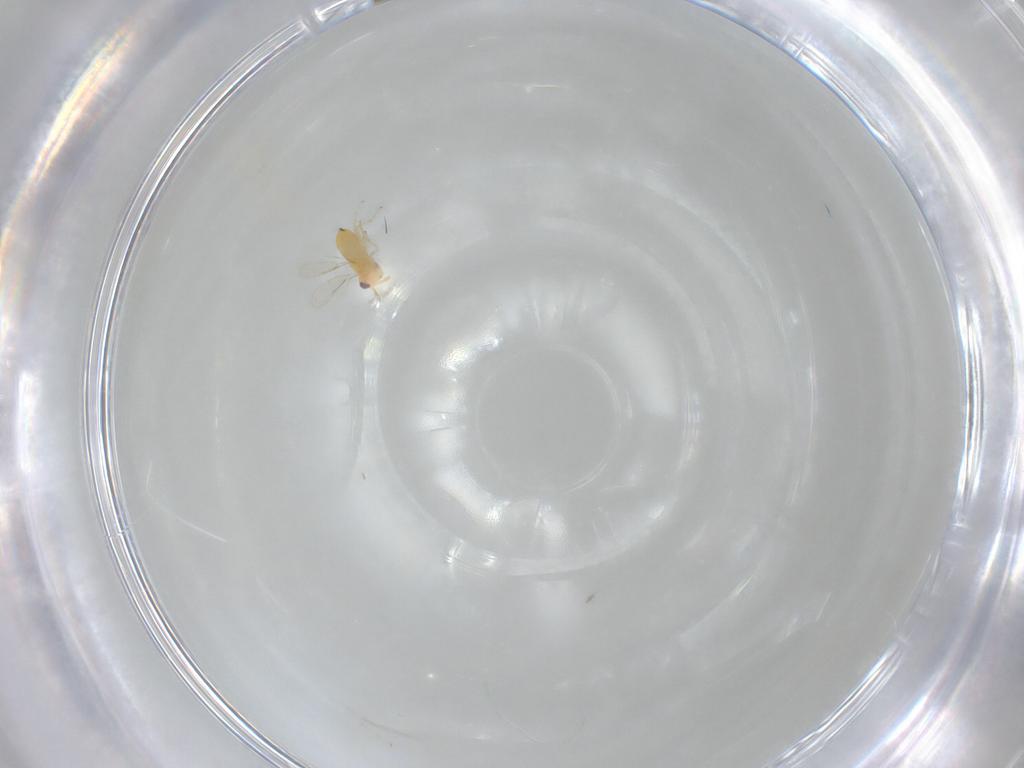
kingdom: Animalia
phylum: Arthropoda
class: Insecta
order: Hymenoptera
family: Aphelinidae
